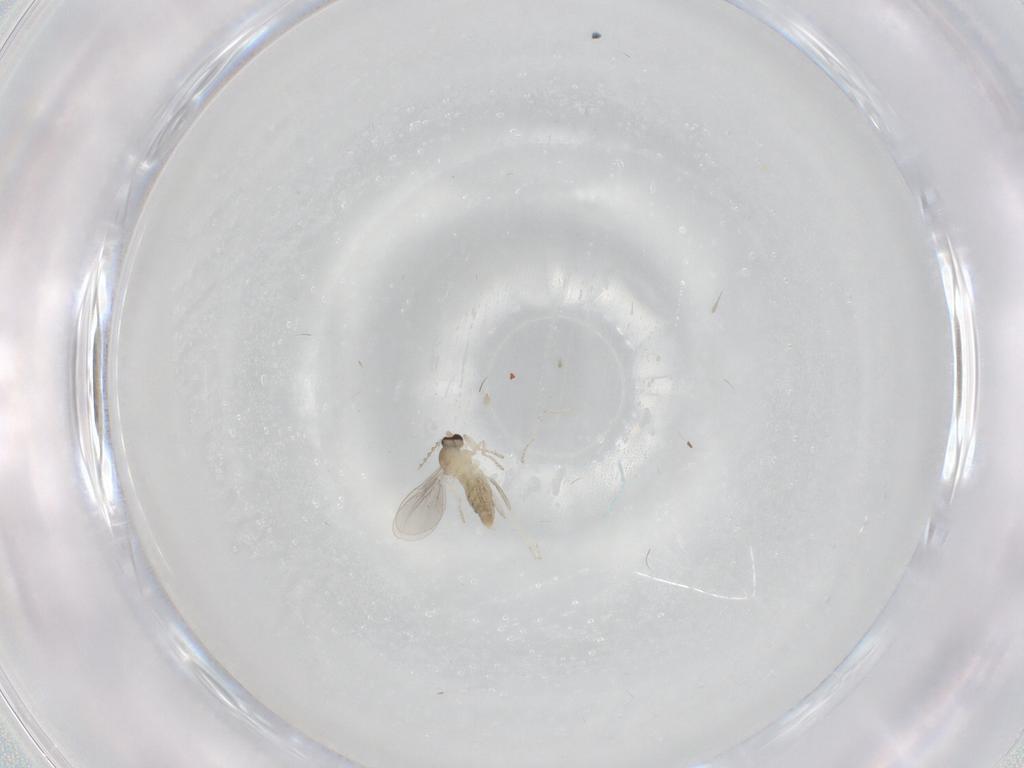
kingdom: Animalia
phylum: Arthropoda
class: Insecta
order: Diptera
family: Cecidomyiidae
